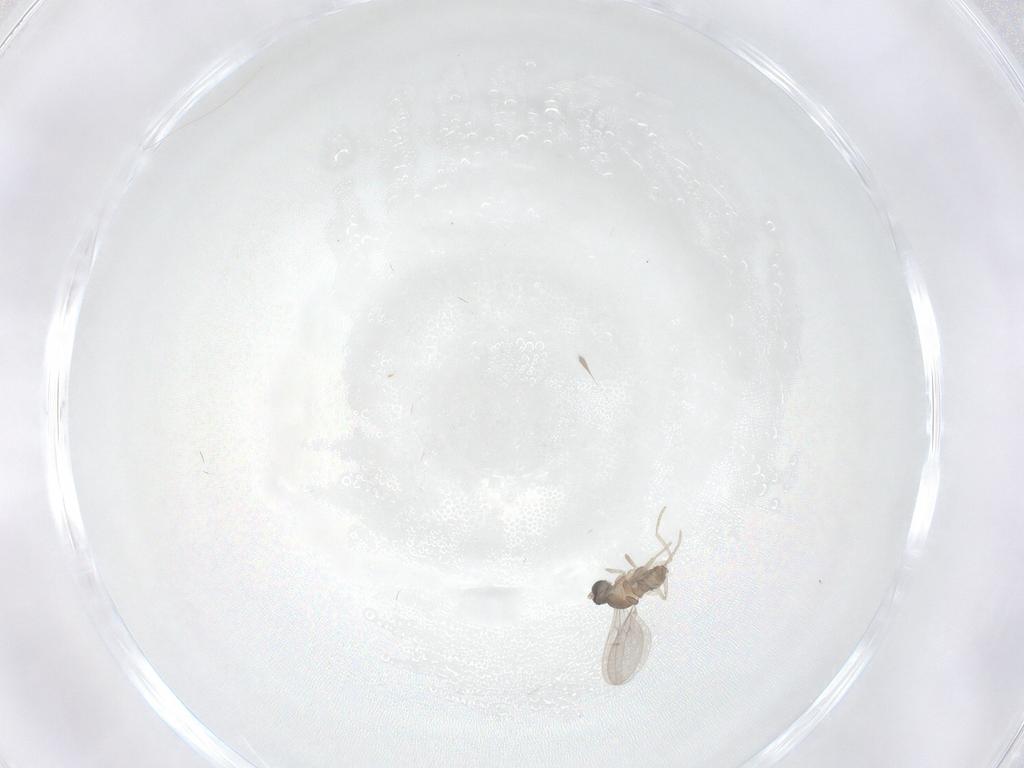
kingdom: Animalia
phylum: Arthropoda
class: Insecta
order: Diptera
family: Cecidomyiidae
